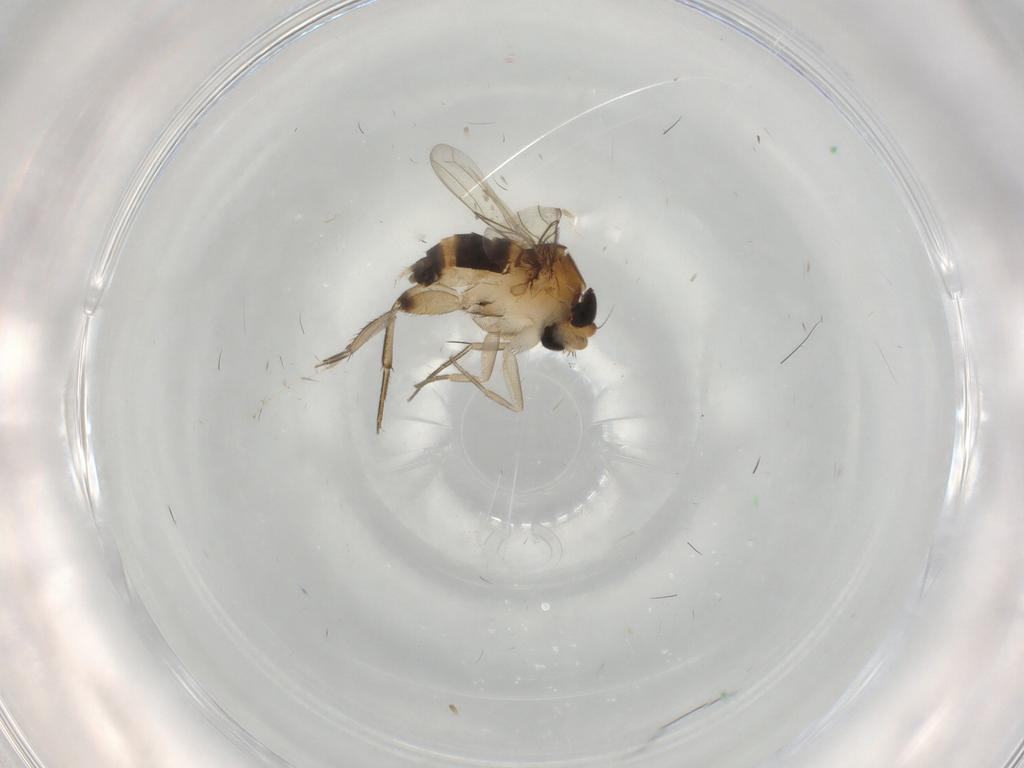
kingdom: Animalia
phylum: Arthropoda
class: Insecta
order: Diptera
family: Phoridae
